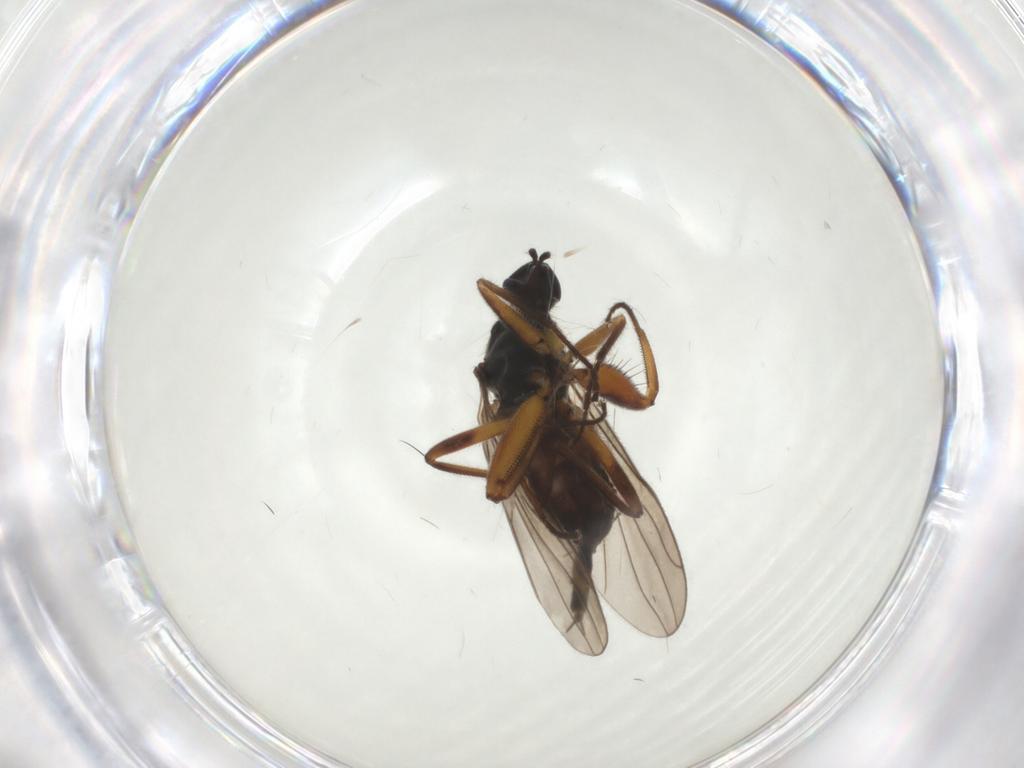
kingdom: Animalia
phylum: Arthropoda
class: Insecta
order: Diptera
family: Hybotidae
